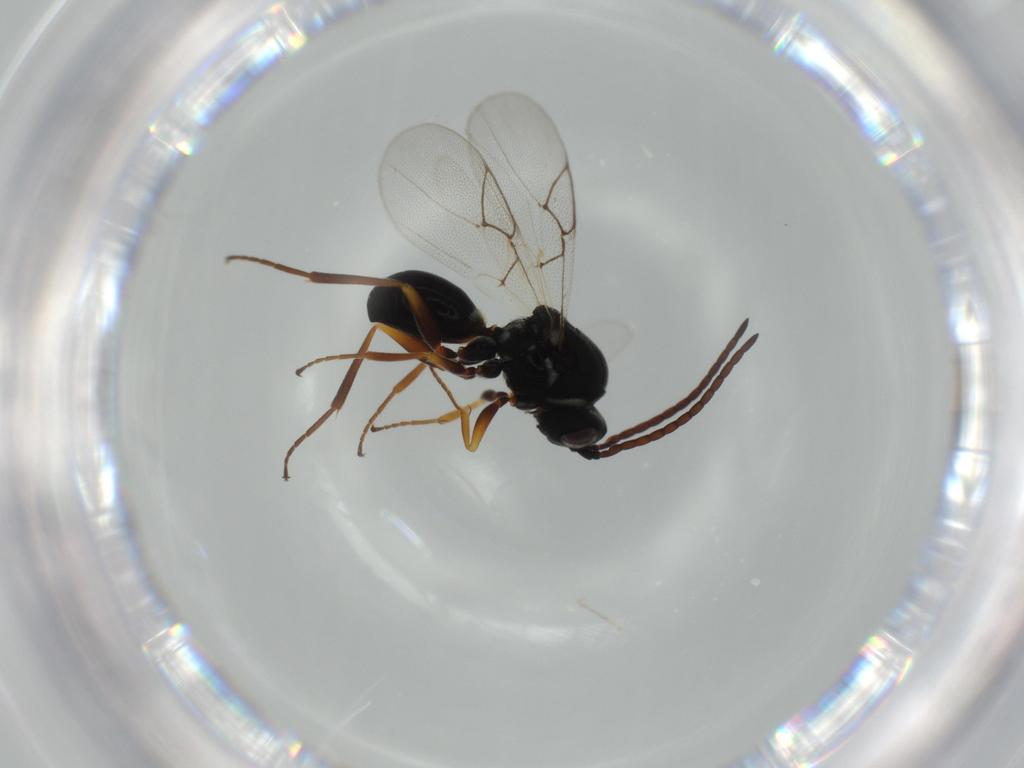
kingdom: Animalia
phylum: Arthropoda
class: Insecta
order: Hymenoptera
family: Figitidae
